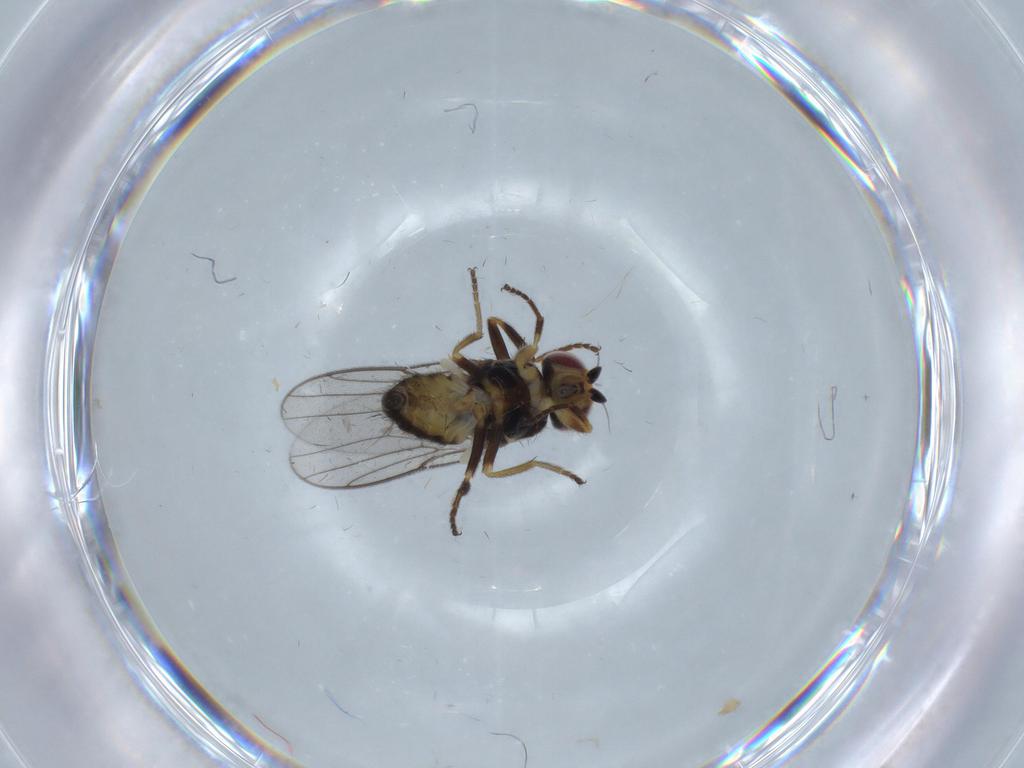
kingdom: Animalia
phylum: Arthropoda
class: Insecta
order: Diptera
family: Chloropidae
